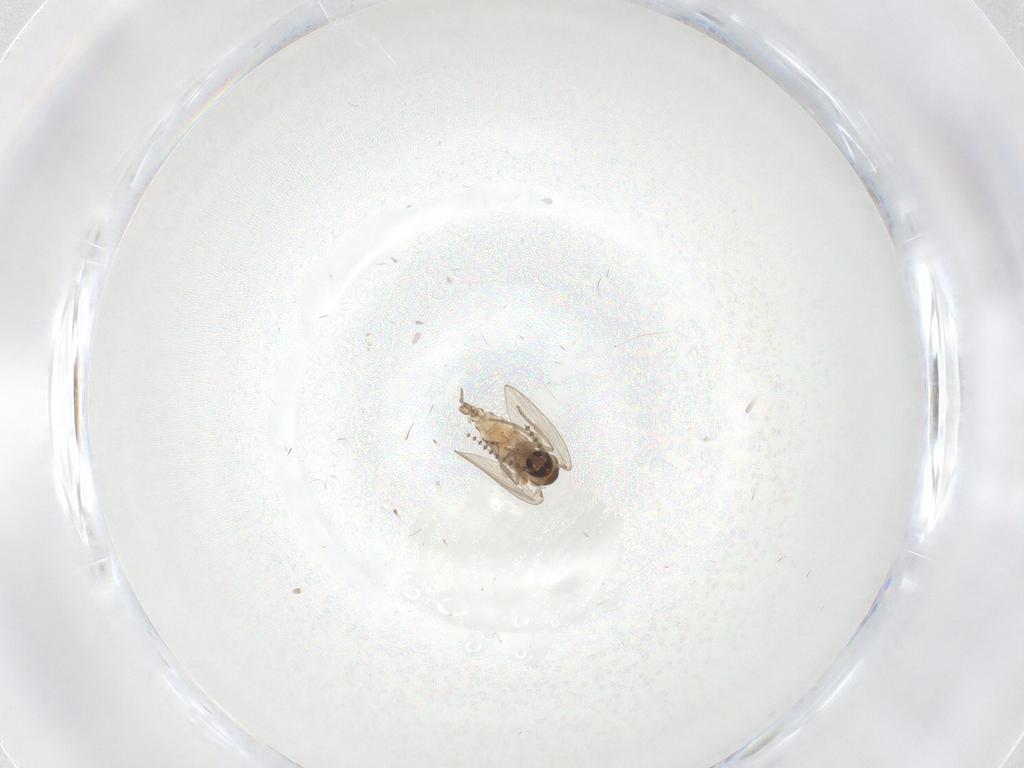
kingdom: Animalia
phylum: Arthropoda
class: Insecta
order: Diptera
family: Psychodidae
